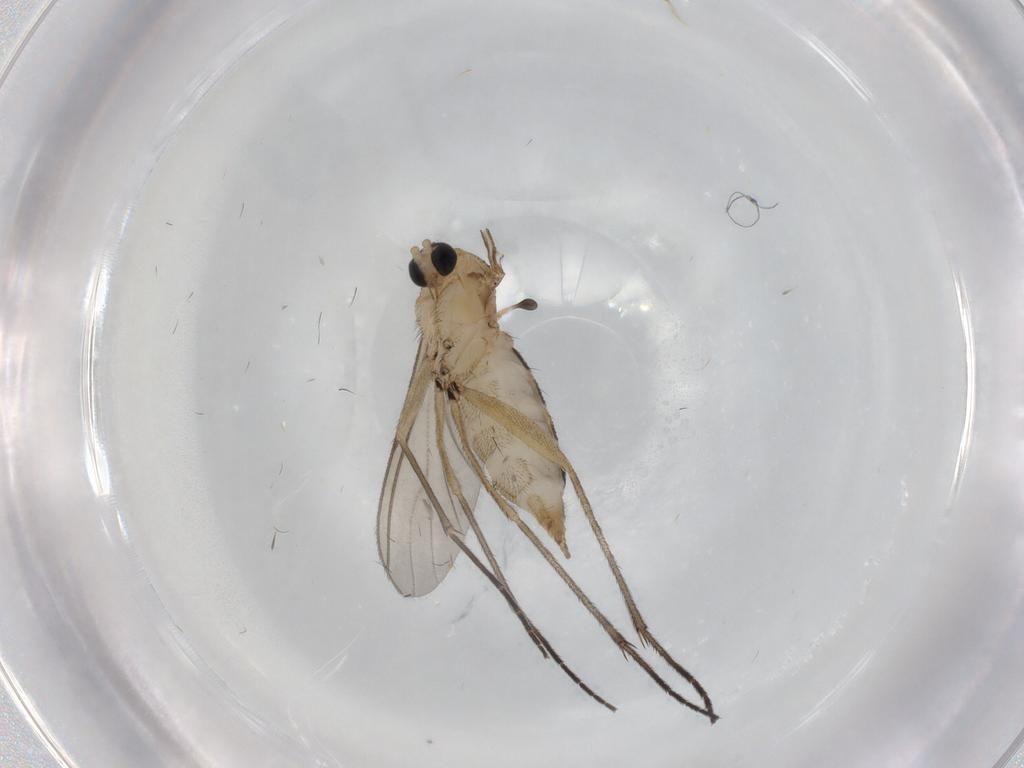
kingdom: Animalia
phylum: Arthropoda
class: Insecta
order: Diptera
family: Sciaridae
